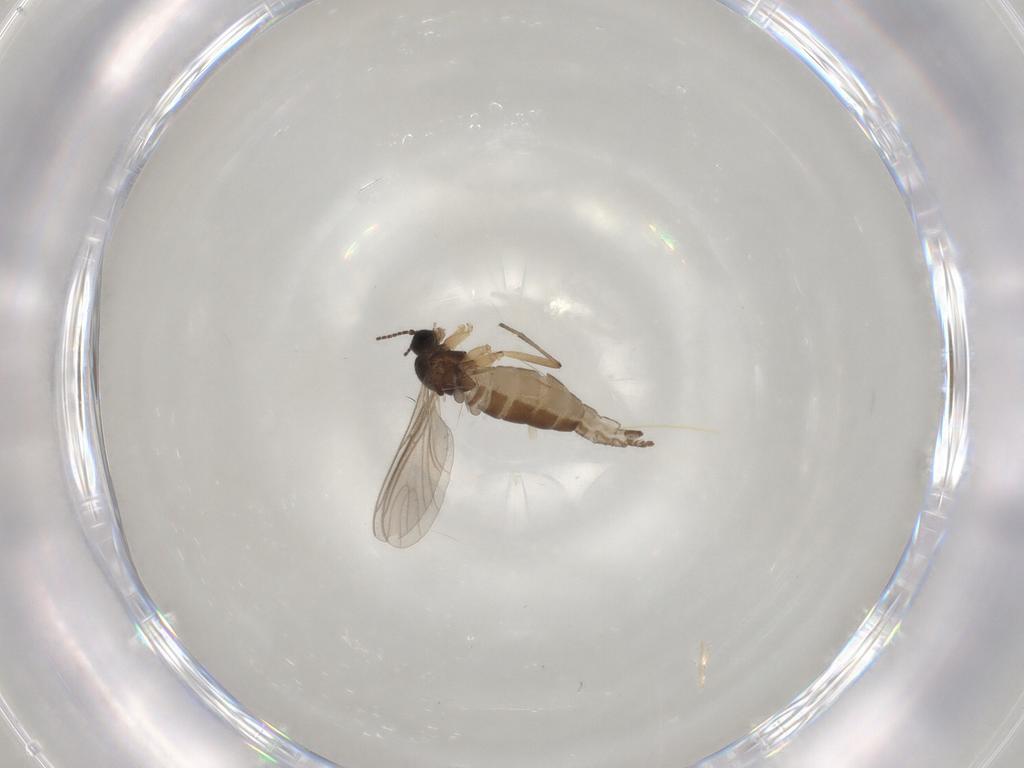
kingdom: Animalia
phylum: Arthropoda
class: Insecta
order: Diptera
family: Sciaridae
